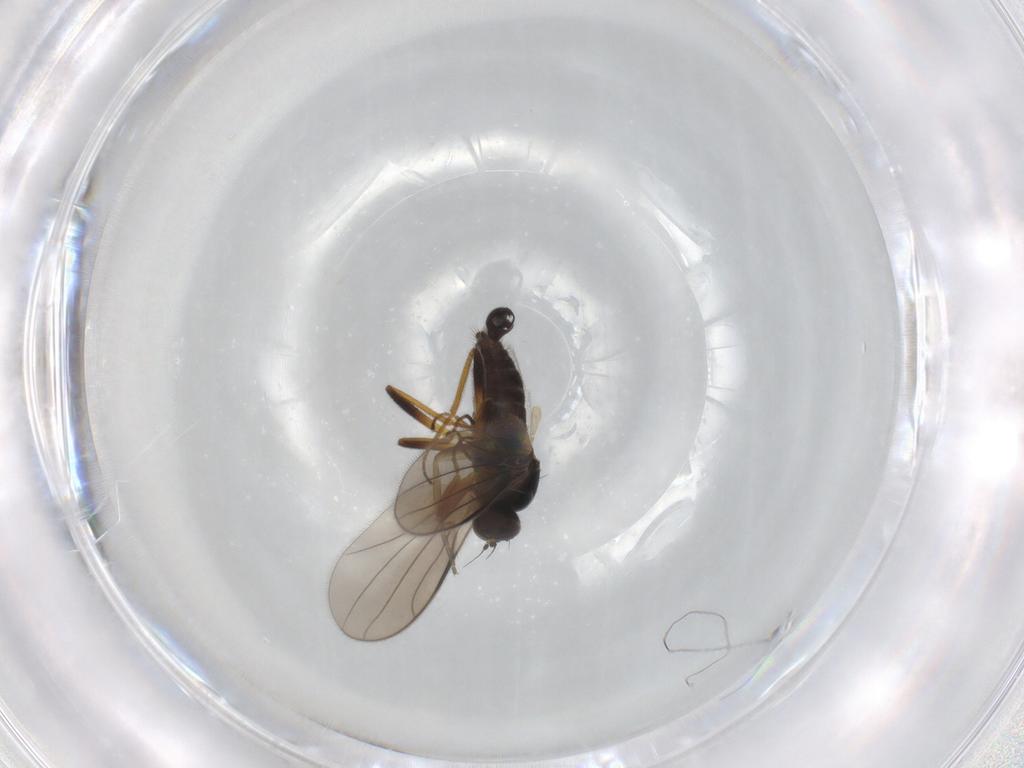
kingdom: Animalia
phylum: Arthropoda
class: Insecta
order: Diptera
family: Hybotidae
